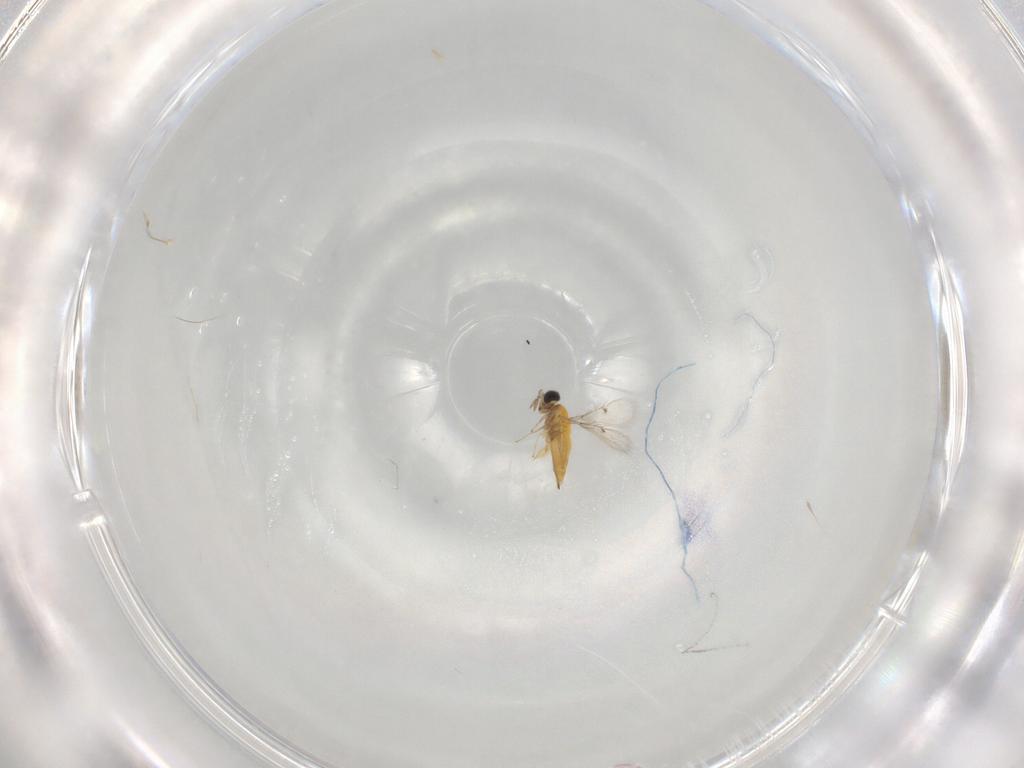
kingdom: Animalia
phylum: Arthropoda
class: Insecta
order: Hymenoptera
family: Trichogrammatidae
